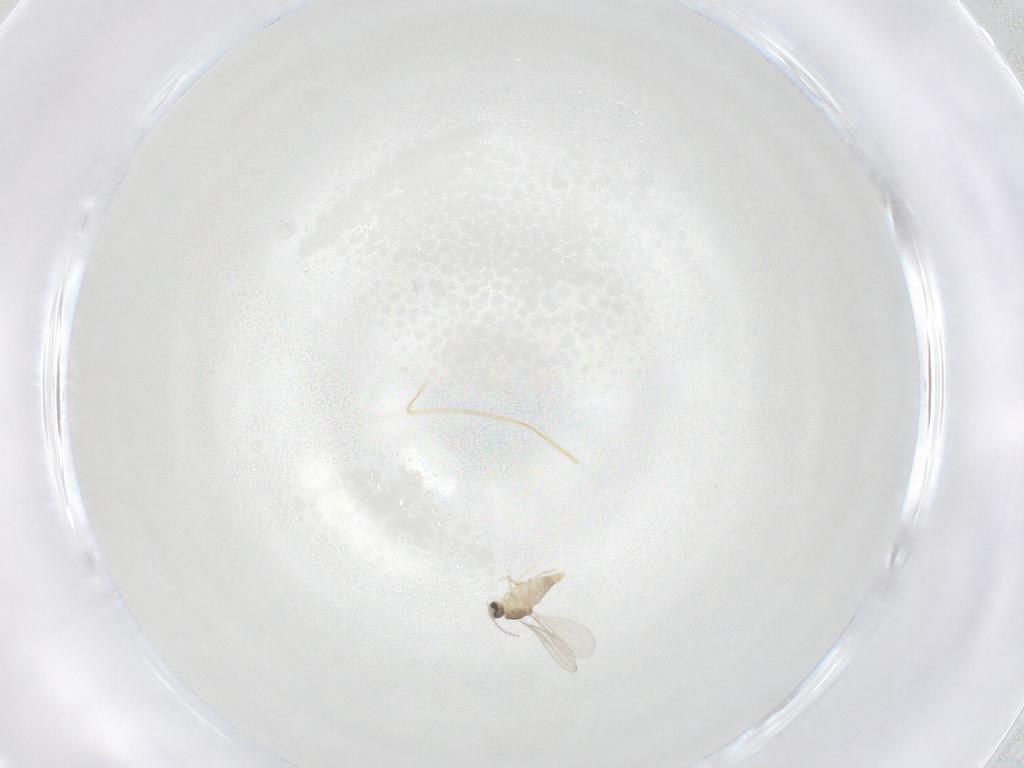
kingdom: Animalia
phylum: Arthropoda
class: Insecta
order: Diptera
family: Cecidomyiidae
